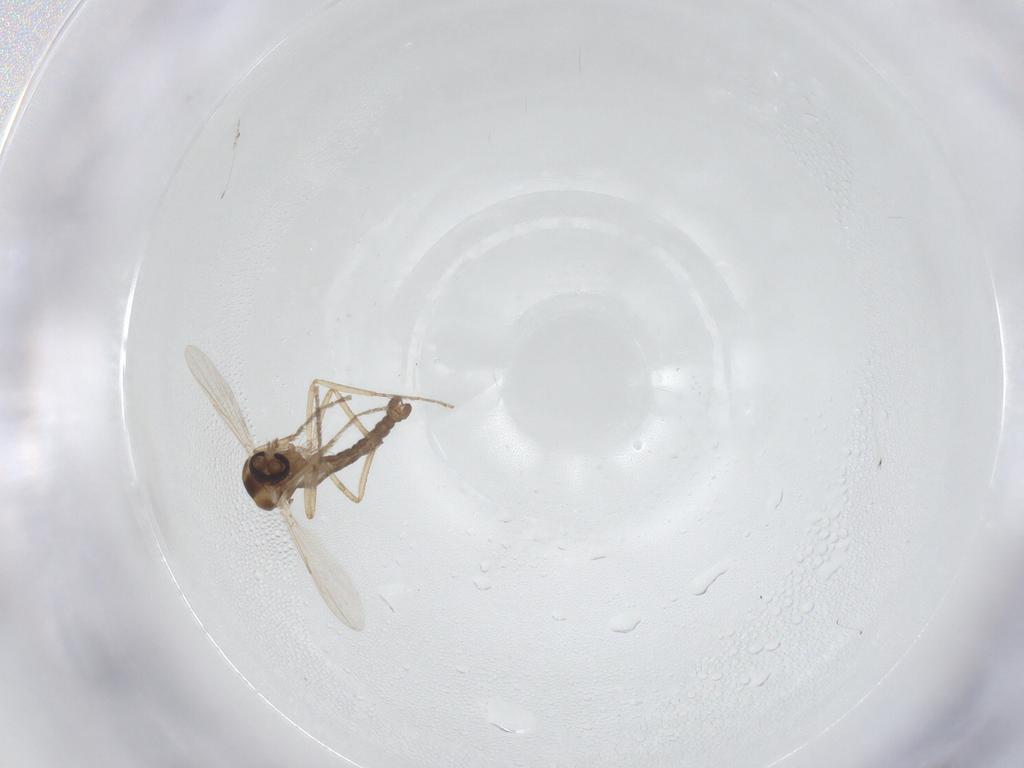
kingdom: Animalia
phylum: Arthropoda
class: Insecta
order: Diptera
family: Ceratopogonidae
